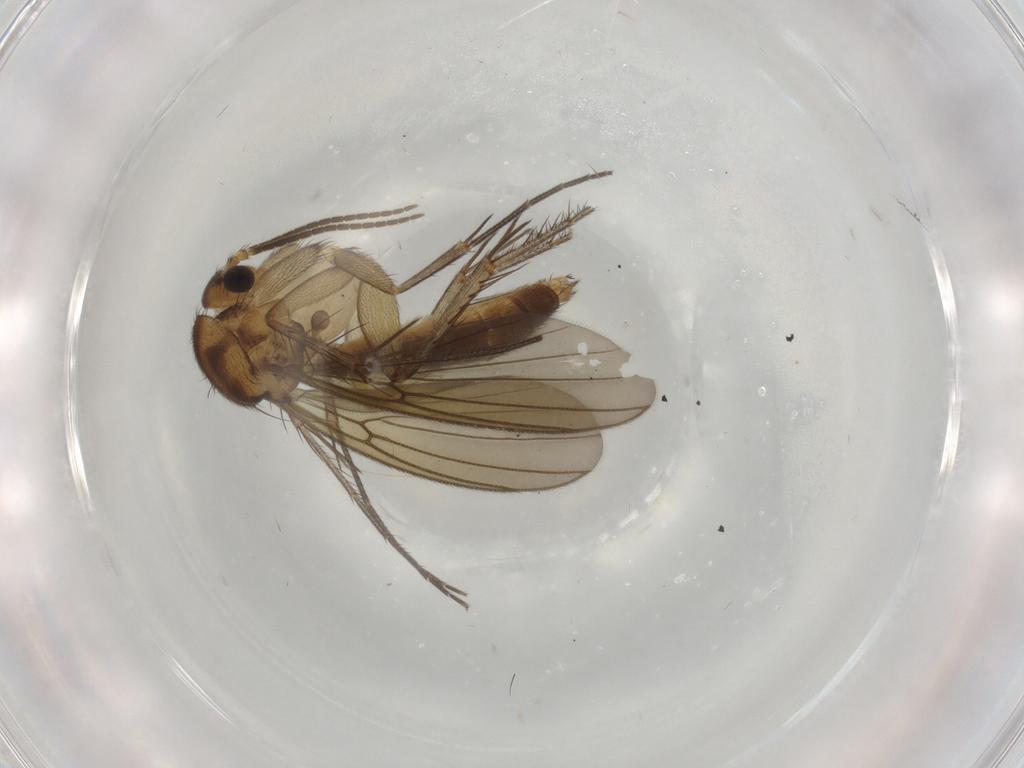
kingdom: Animalia
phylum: Arthropoda
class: Insecta
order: Diptera
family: Mycetophilidae
